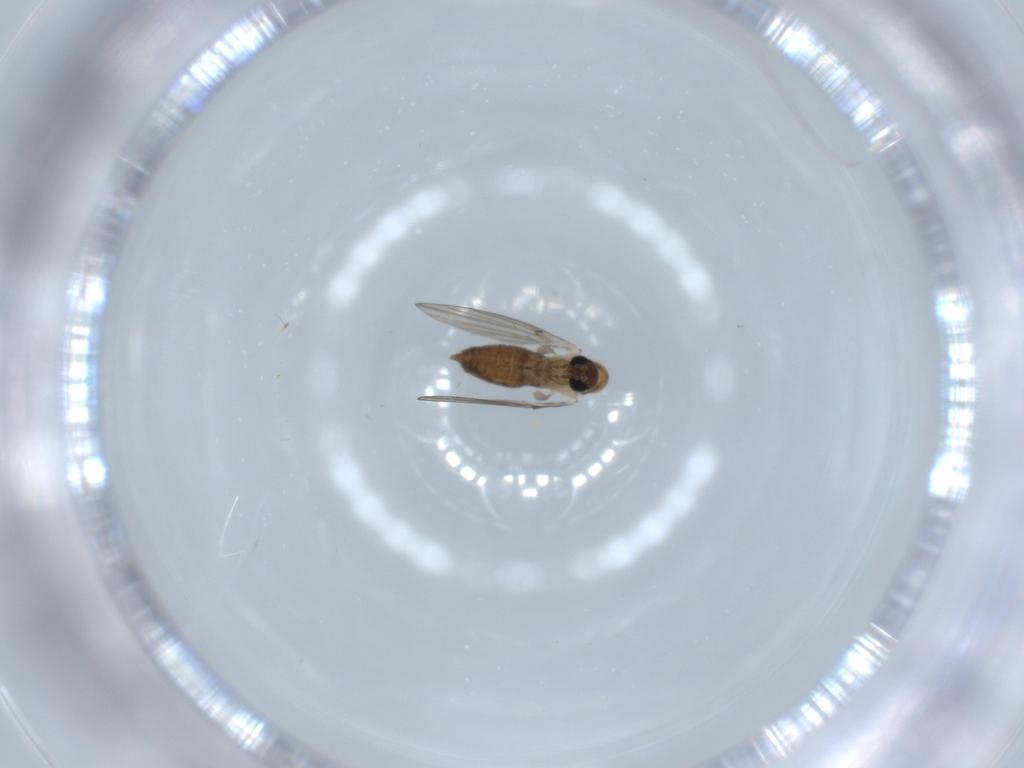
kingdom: Animalia
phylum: Arthropoda
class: Insecta
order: Diptera
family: Psychodidae
